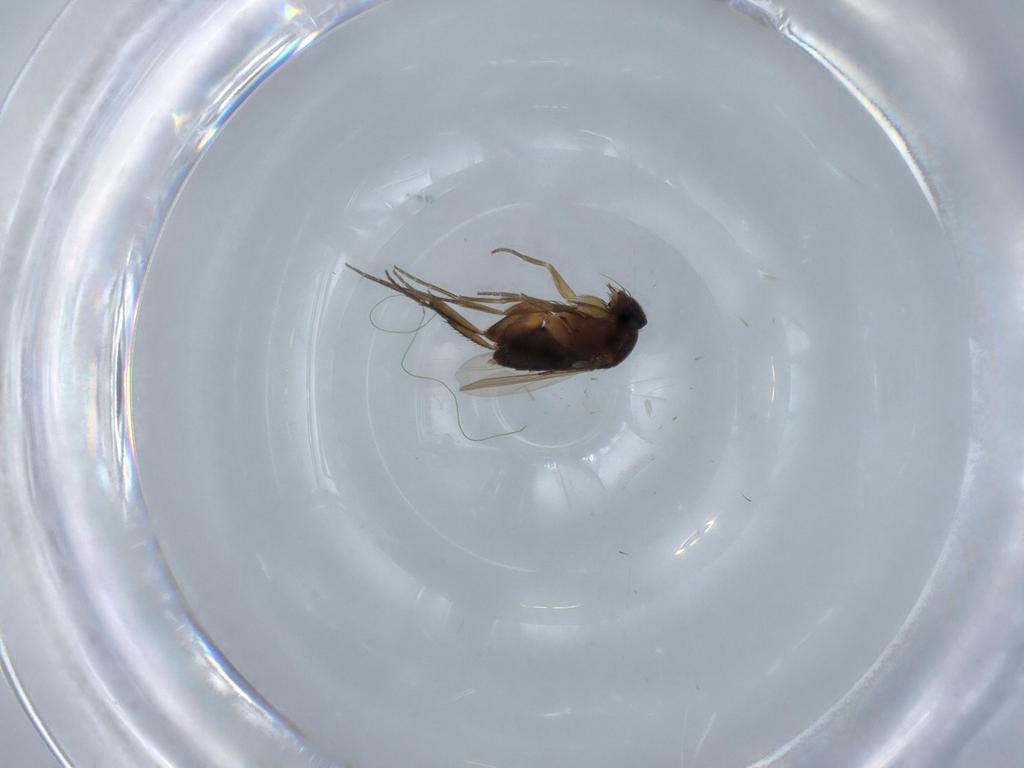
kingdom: Animalia
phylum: Arthropoda
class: Insecta
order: Diptera
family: Phoridae
